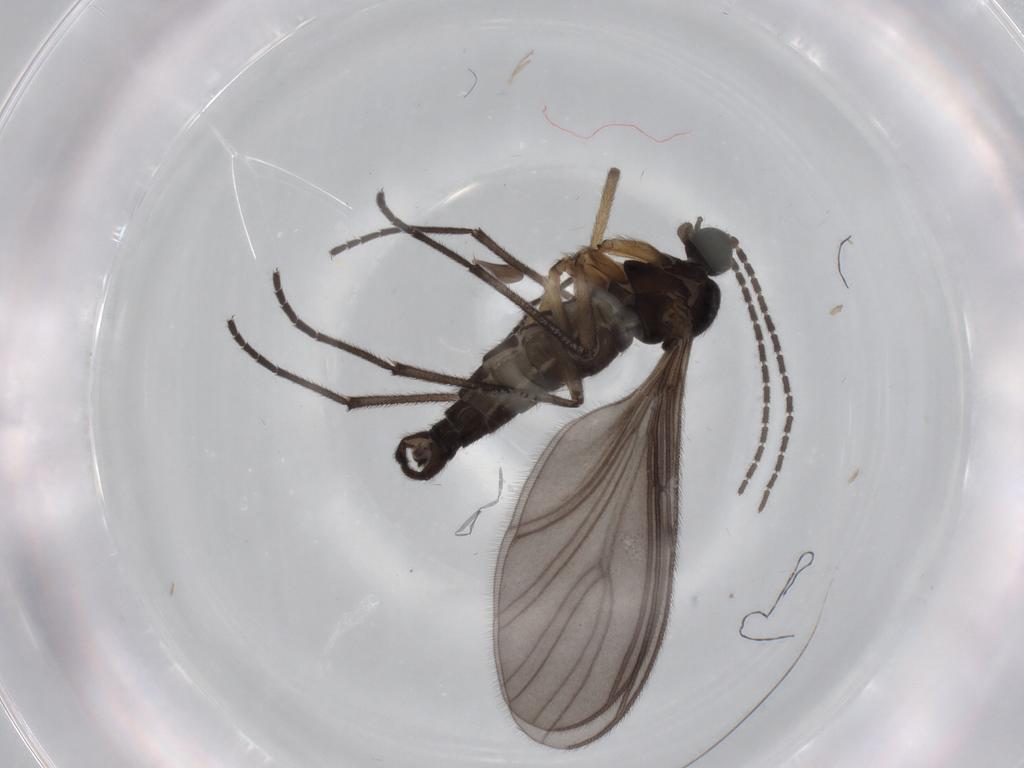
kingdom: Animalia
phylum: Arthropoda
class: Insecta
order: Diptera
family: Sciaridae
